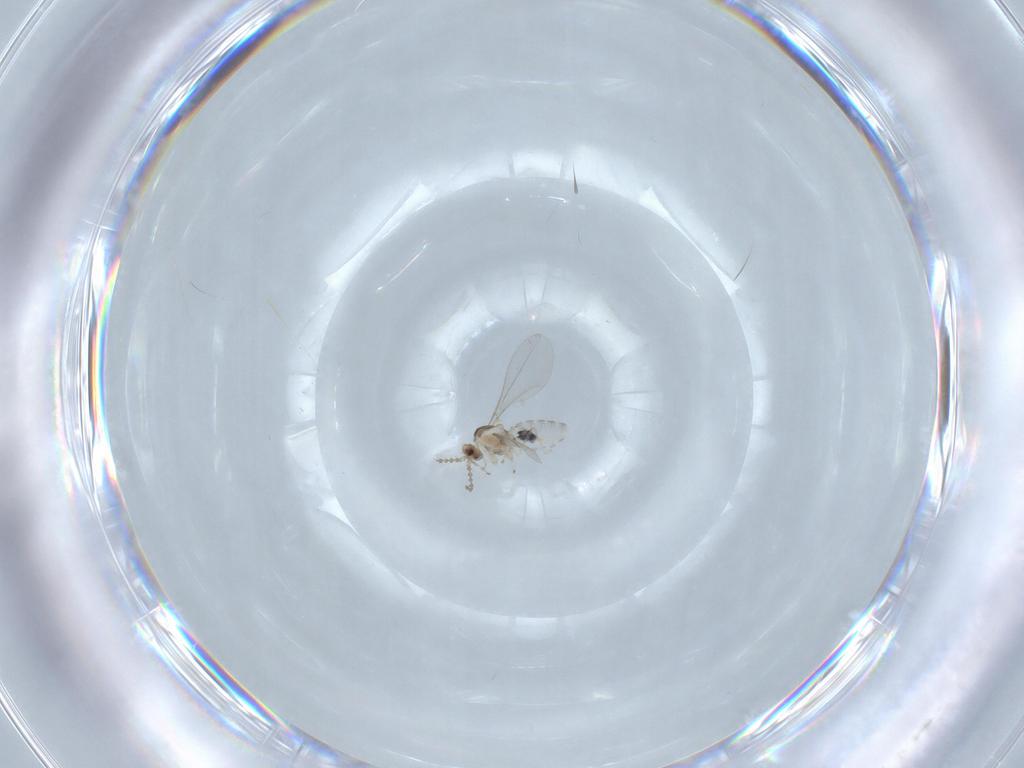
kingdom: Animalia
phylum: Arthropoda
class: Insecta
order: Diptera
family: Cecidomyiidae
